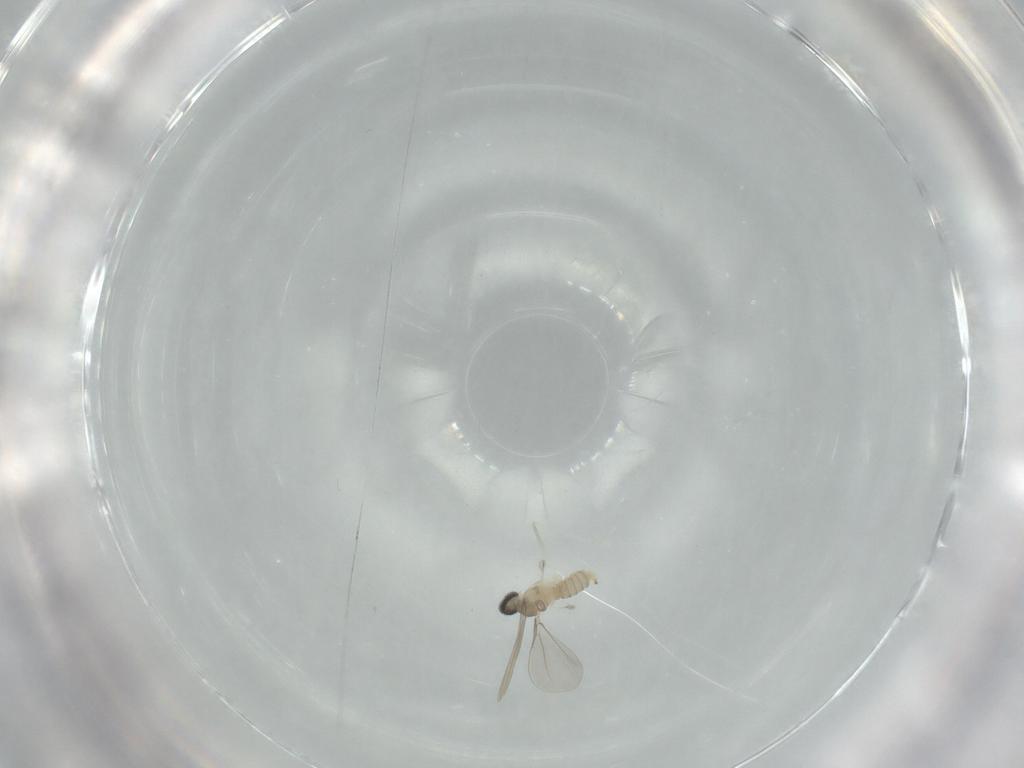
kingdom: Animalia
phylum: Arthropoda
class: Insecta
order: Diptera
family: Cecidomyiidae
